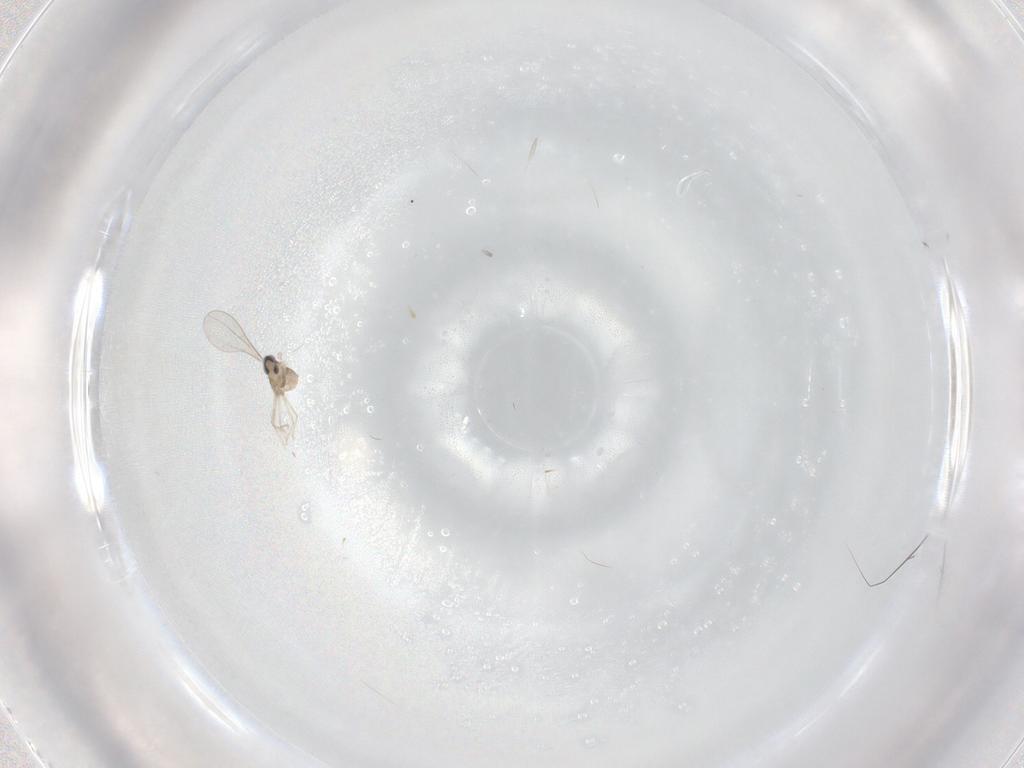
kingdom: Animalia
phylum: Arthropoda
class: Insecta
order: Diptera
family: Cecidomyiidae
